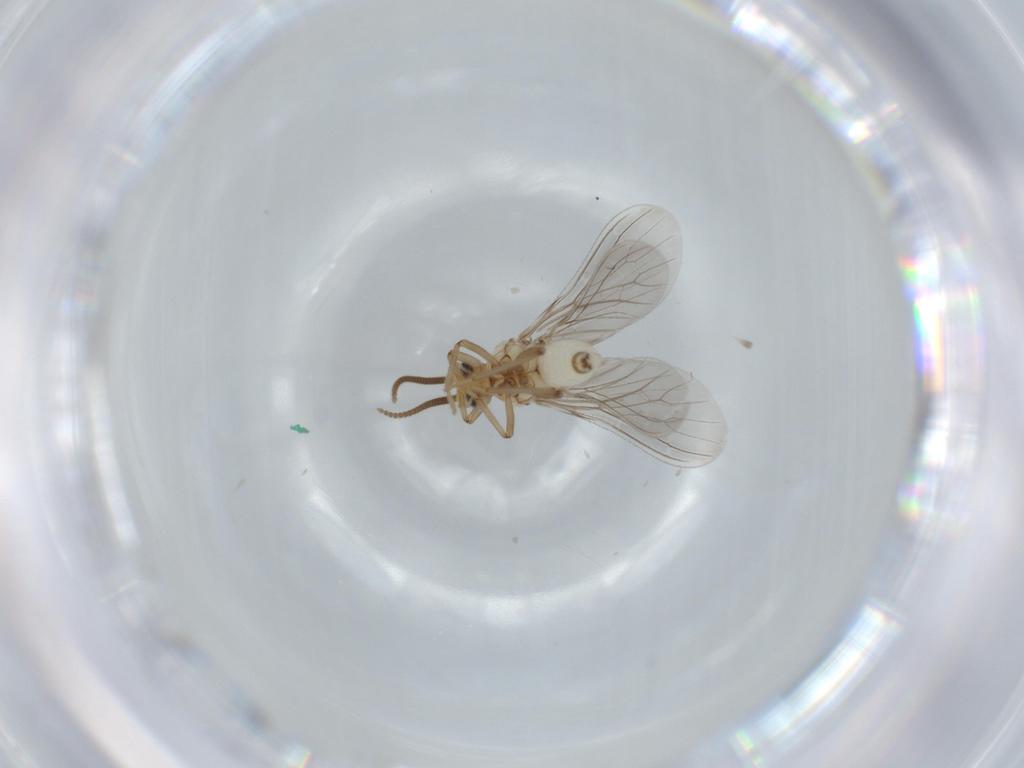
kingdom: Animalia
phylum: Arthropoda
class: Insecta
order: Neuroptera
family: Coniopterygidae
